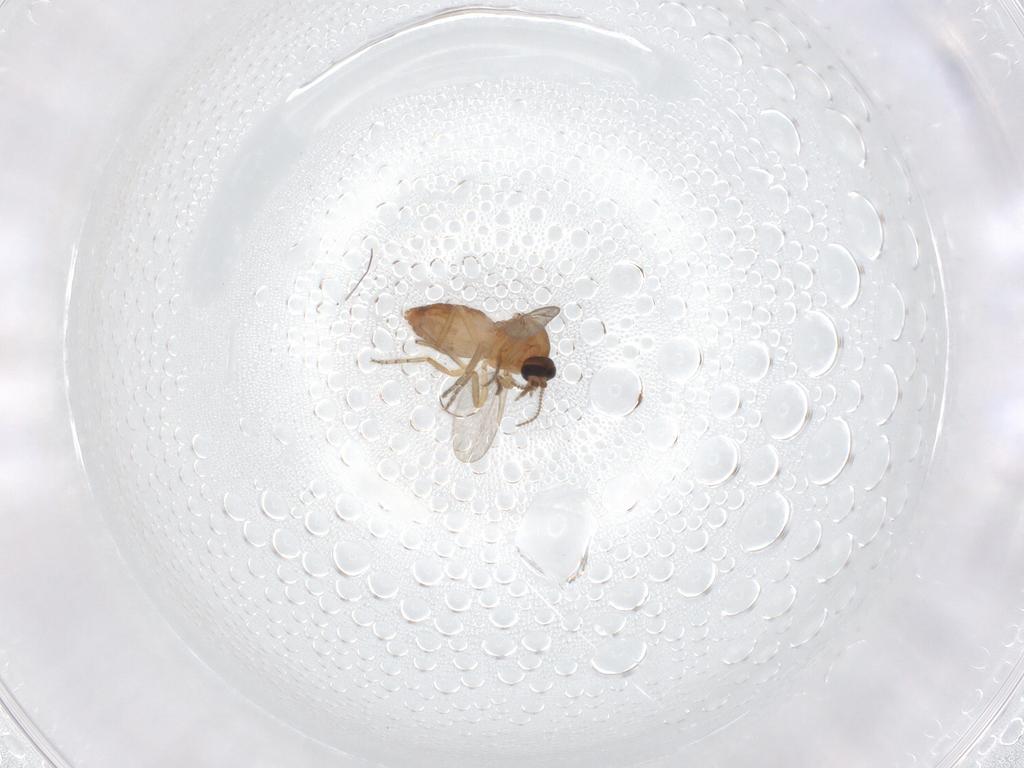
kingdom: Animalia
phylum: Arthropoda
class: Insecta
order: Diptera
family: Ceratopogonidae
